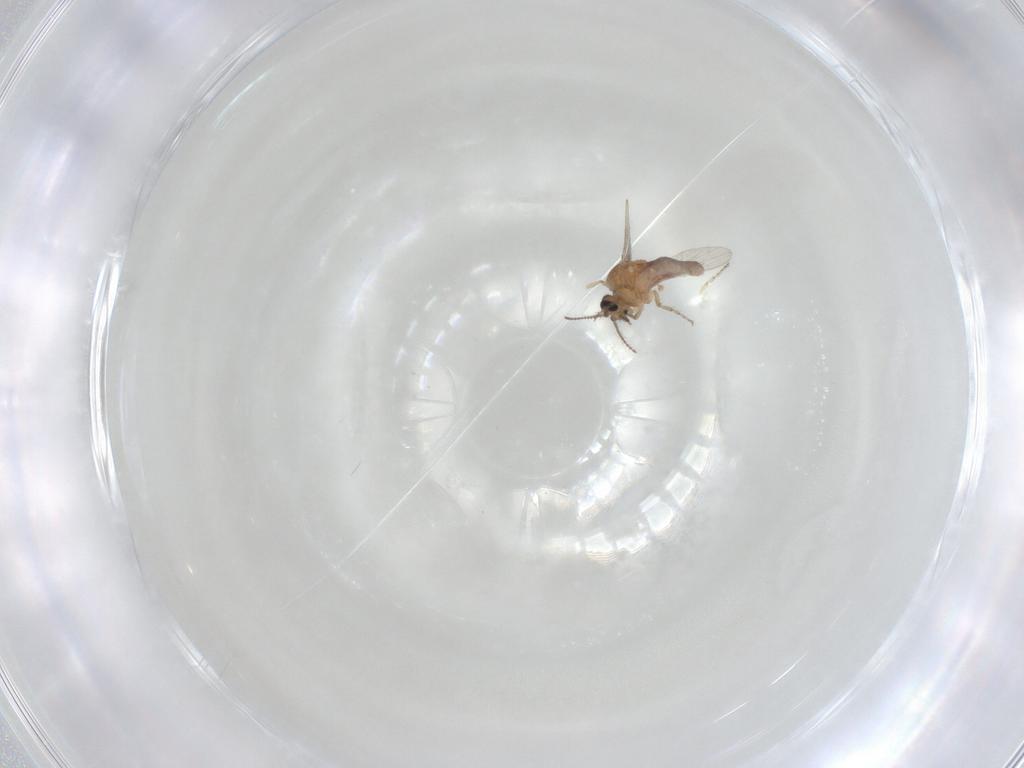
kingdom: Animalia
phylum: Arthropoda
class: Insecta
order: Diptera
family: Ceratopogonidae
